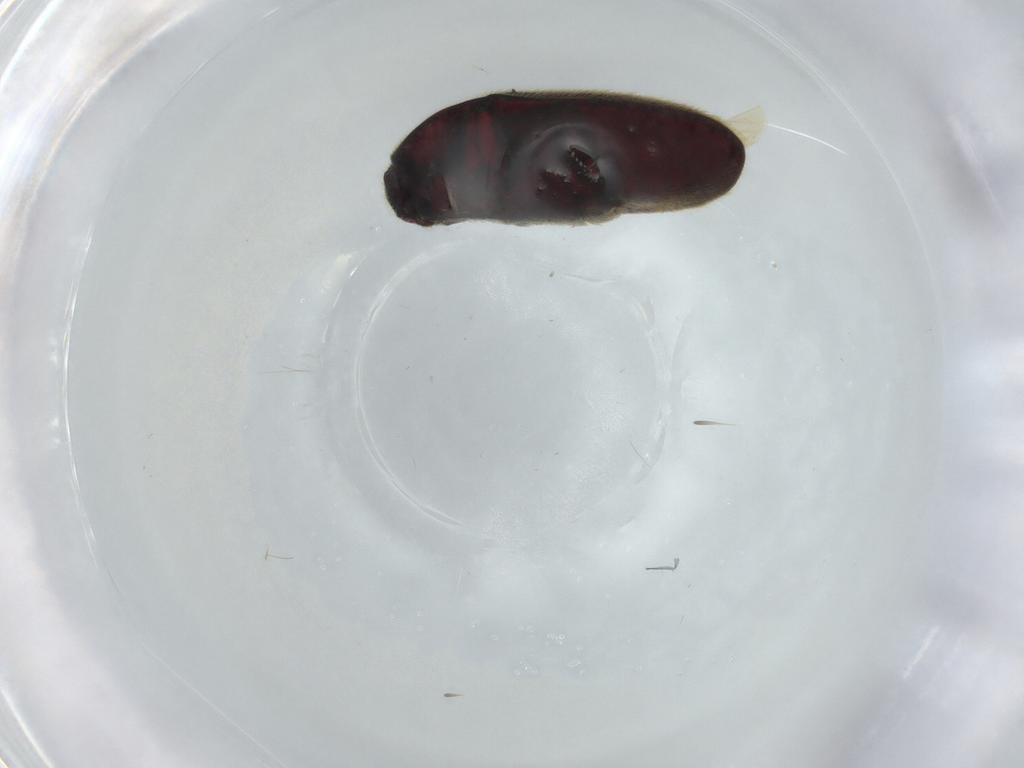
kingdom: Animalia
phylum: Arthropoda
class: Insecta
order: Coleoptera
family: Throscidae
